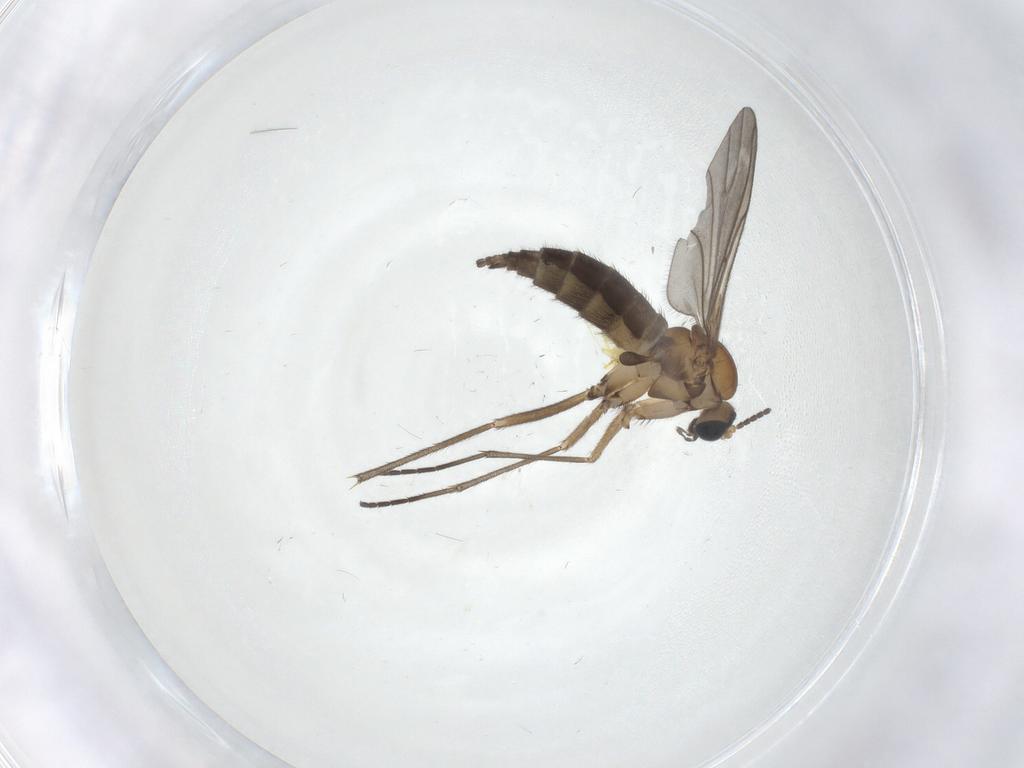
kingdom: Animalia
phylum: Arthropoda
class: Insecta
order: Diptera
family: Sciaridae
